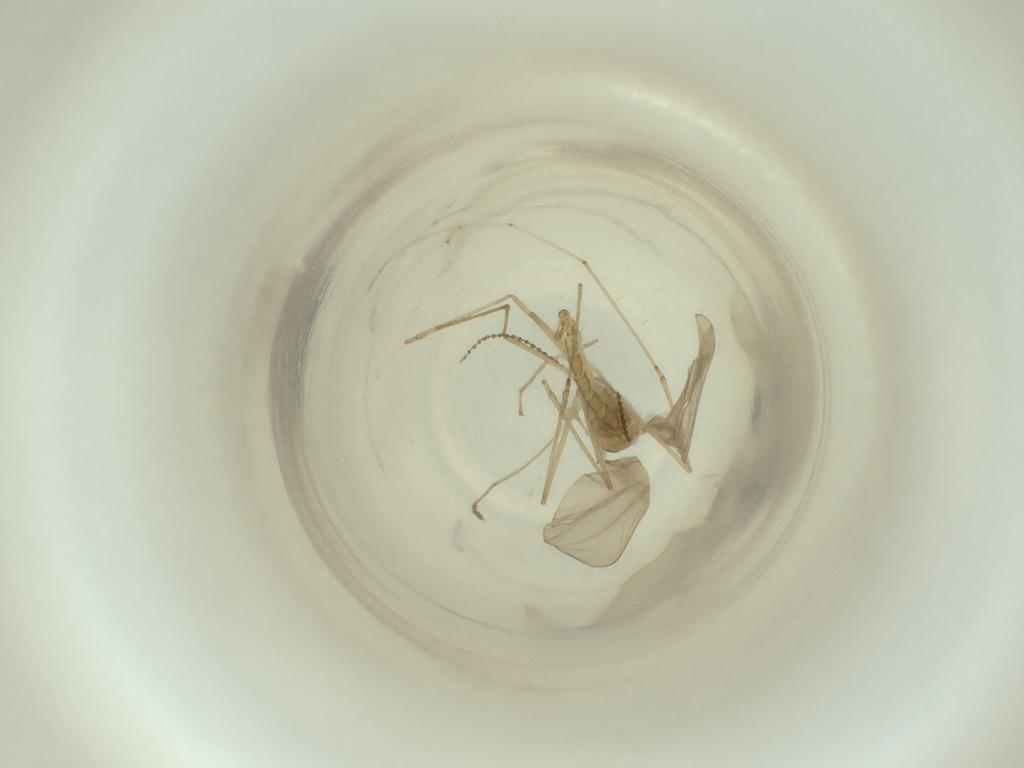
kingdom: Animalia
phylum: Arthropoda
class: Insecta
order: Diptera
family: Cecidomyiidae
